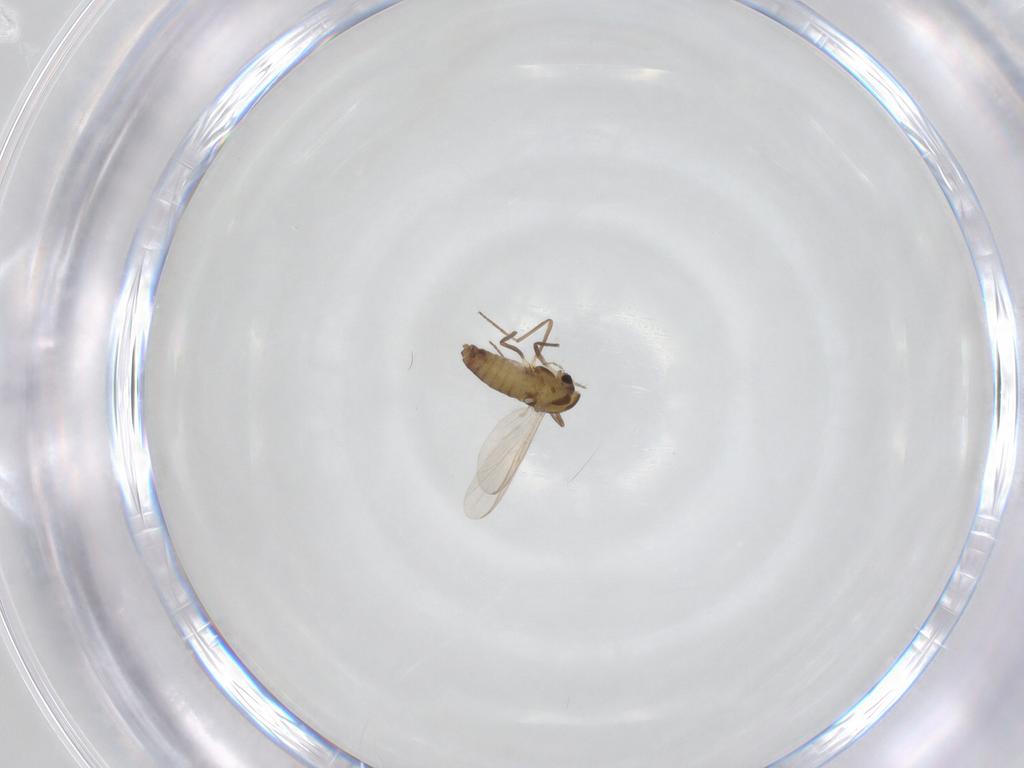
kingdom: Animalia
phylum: Arthropoda
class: Insecta
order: Diptera
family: Phoridae
